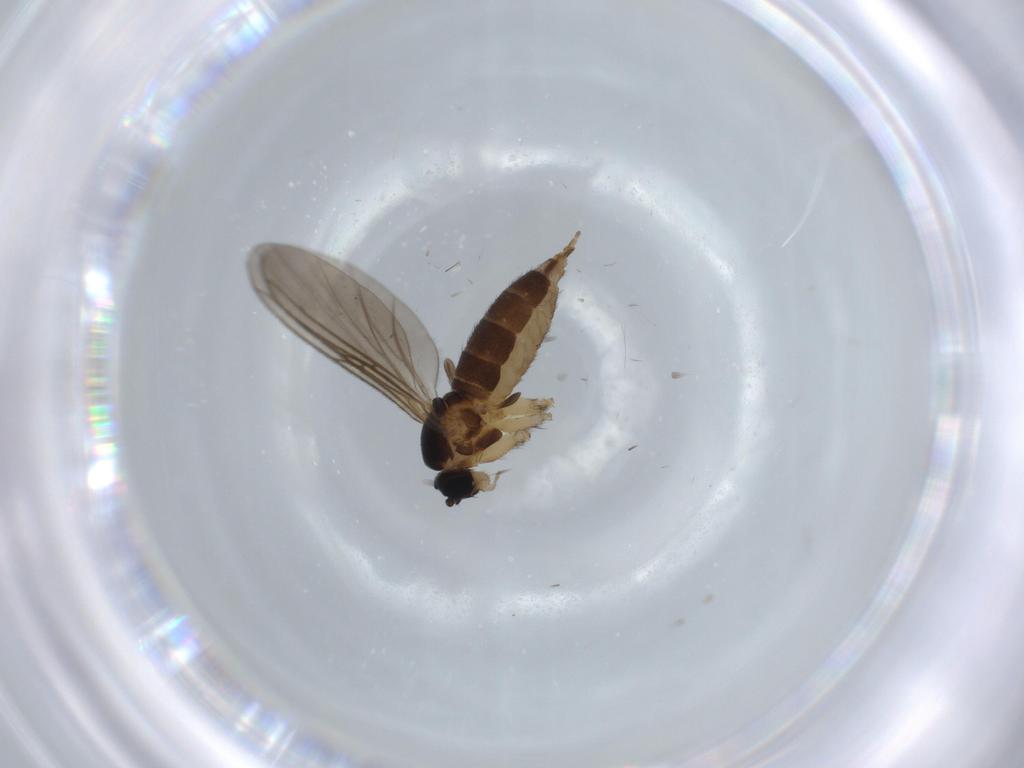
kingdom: Animalia
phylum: Arthropoda
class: Insecta
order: Diptera
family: Sciaridae
